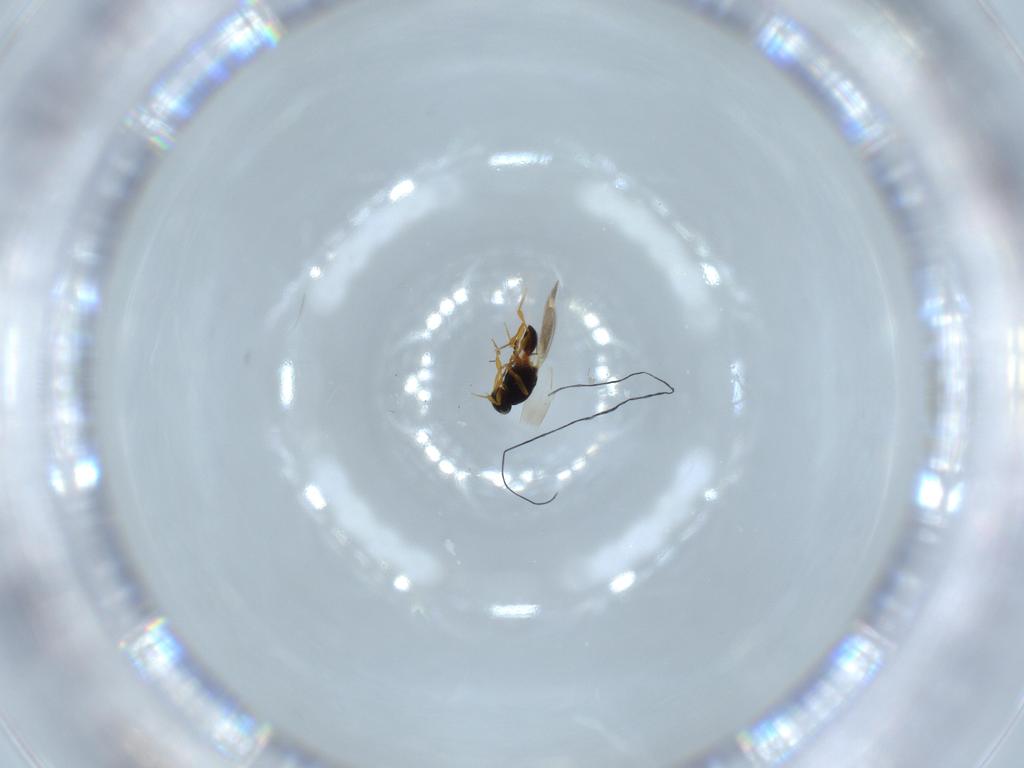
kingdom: Animalia
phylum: Arthropoda
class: Insecta
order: Hymenoptera
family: Platygastridae
